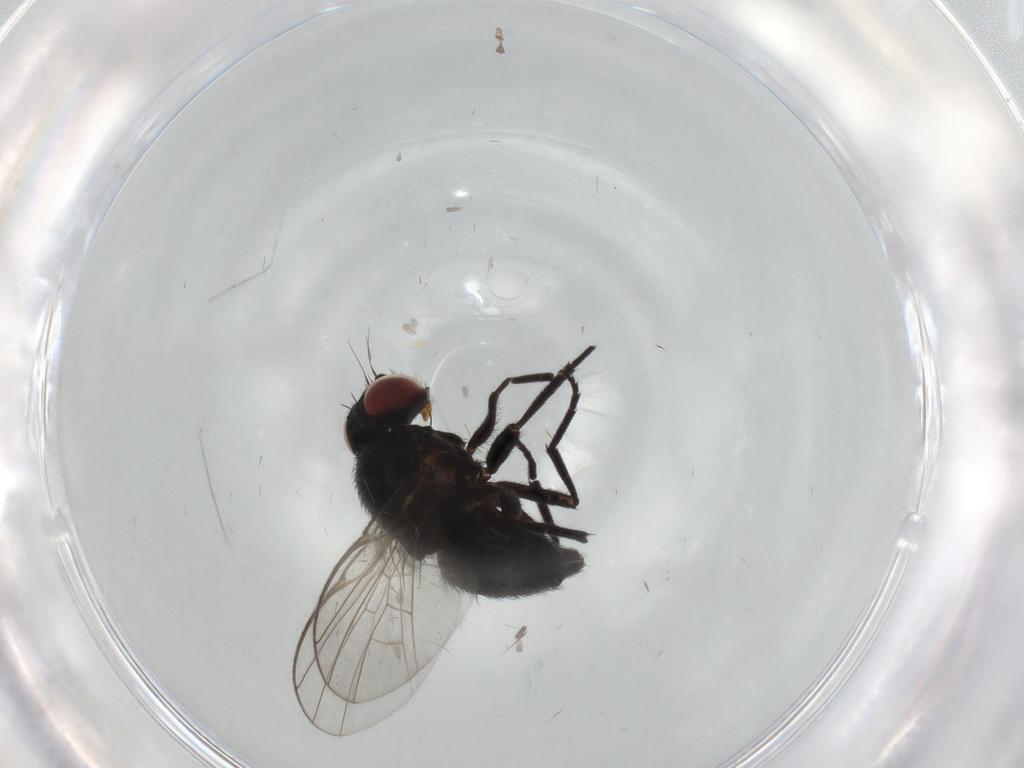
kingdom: Animalia
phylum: Arthropoda
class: Insecta
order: Diptera
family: Agromyzidae
